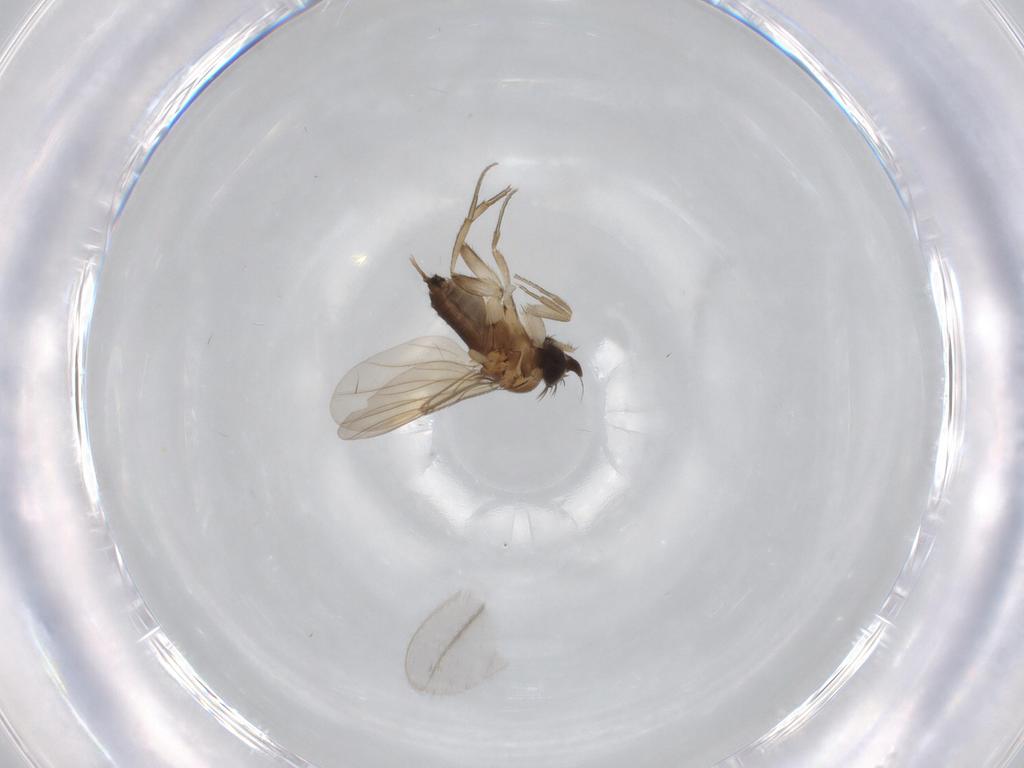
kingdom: Animalia
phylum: Arthropoda
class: Insecta
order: Diptera
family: Phoridae
